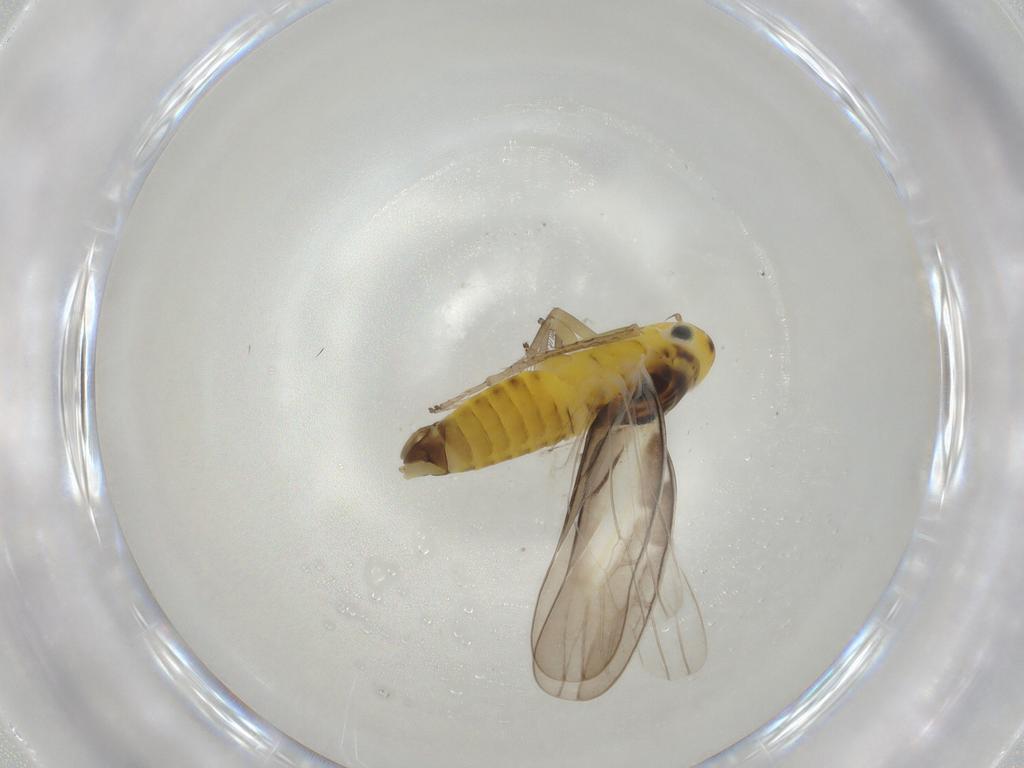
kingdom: Animalia
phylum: Arthropoda
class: Insecta
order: Hemiptera
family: Cicadellidae
